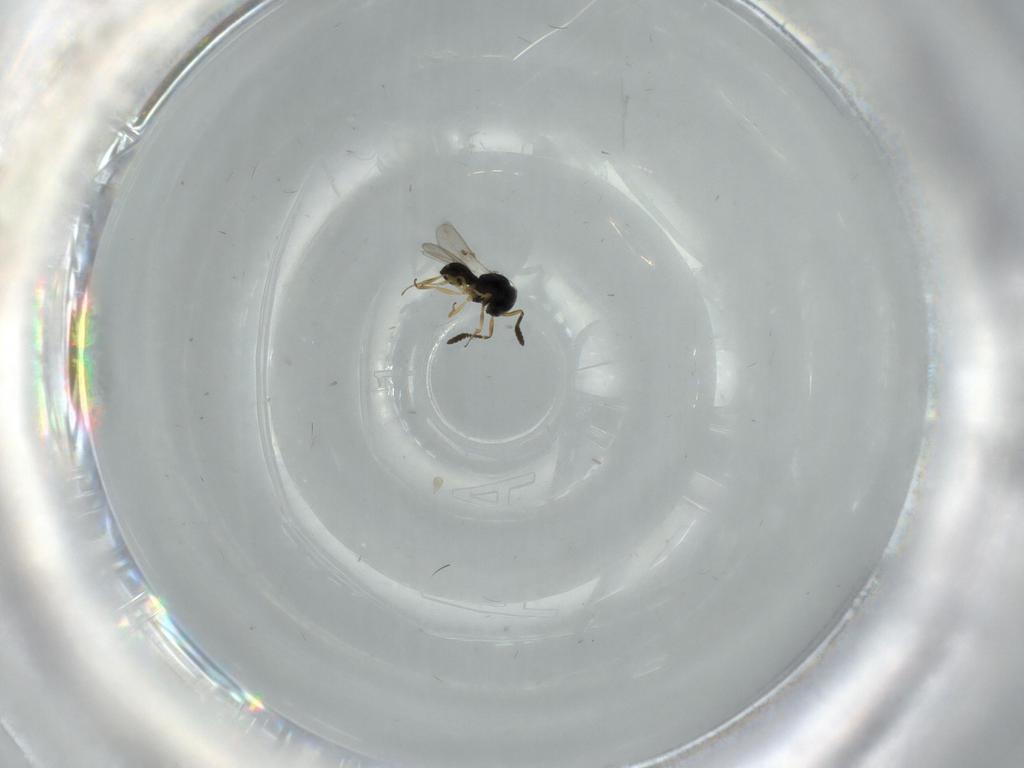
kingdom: Animalia
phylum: Arthropoda
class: Insecta
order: Hymenoptera
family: Scelionidae
